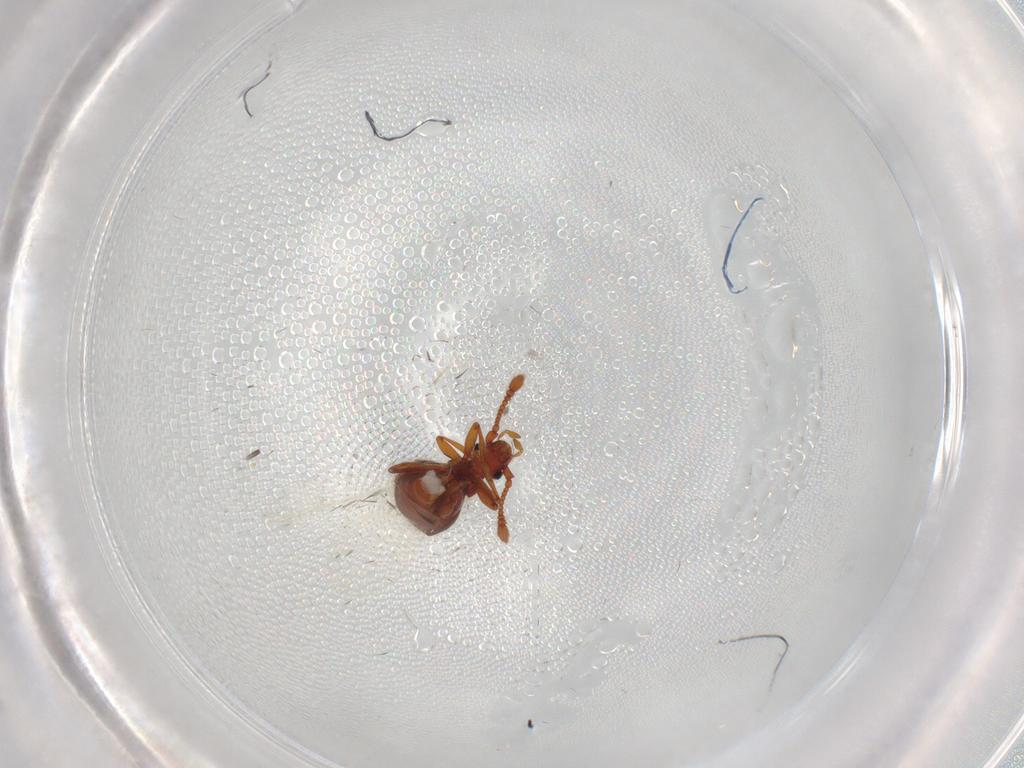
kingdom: Animalia
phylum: Arthropoda
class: Insecta
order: Coleoptera
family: Staphylinidae
